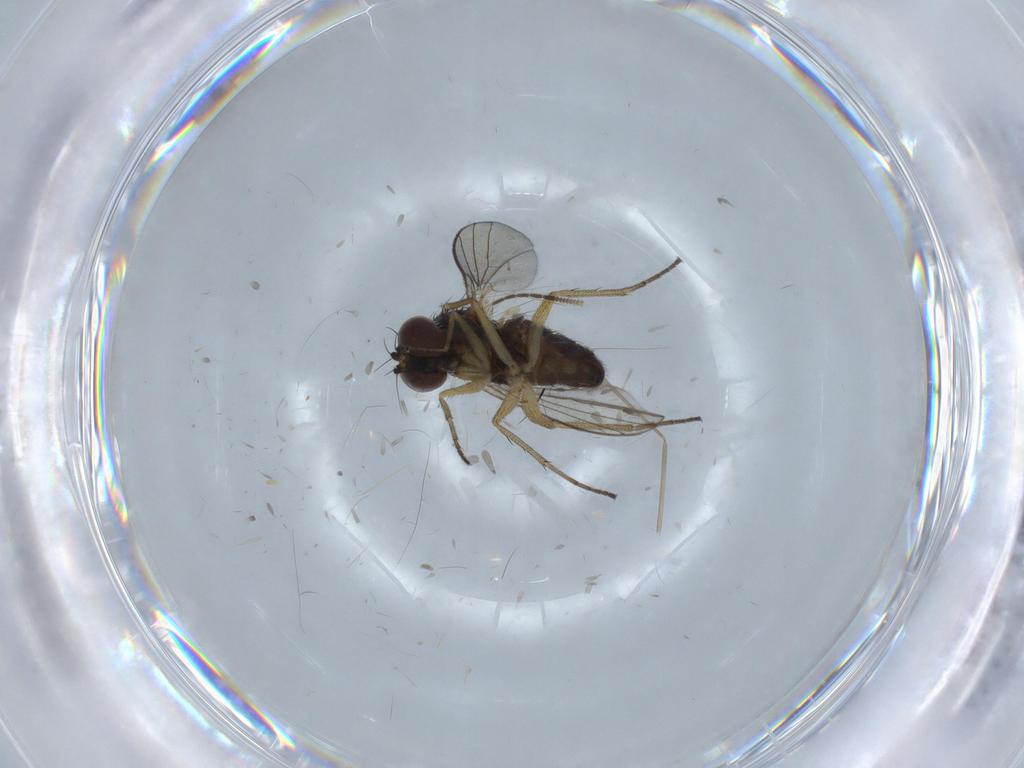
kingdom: Animalia
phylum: Arthropoda
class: Insecta
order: Diptera
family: Ceratopogonidae
